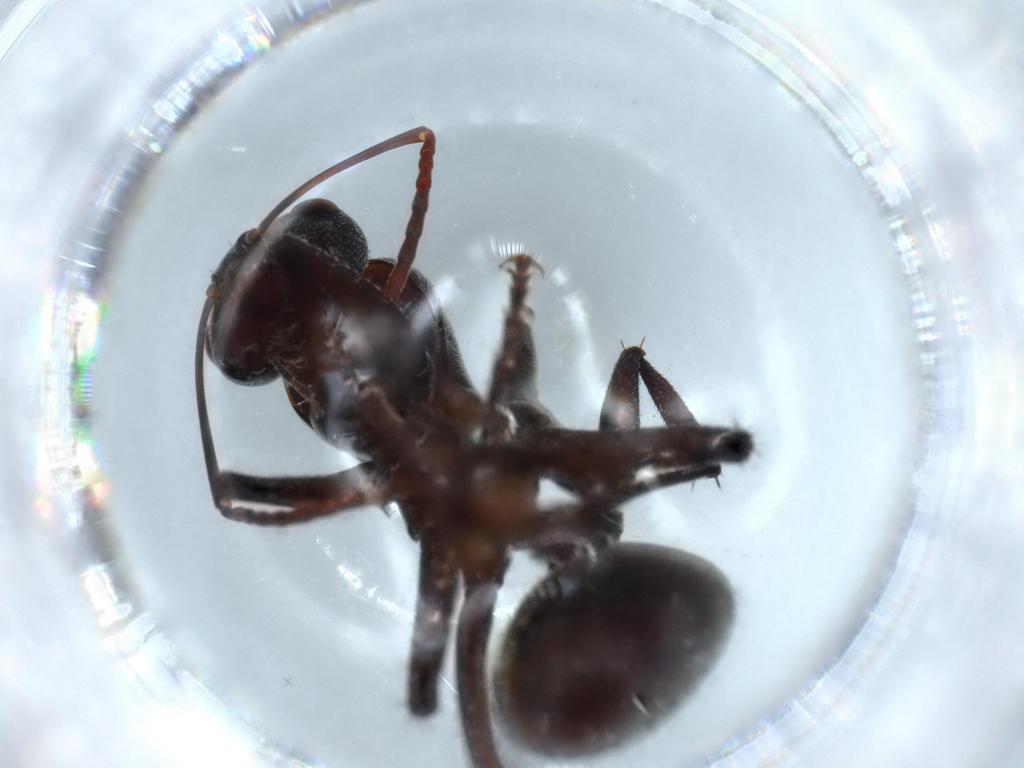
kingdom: Animalia
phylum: Arthropoda
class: Insecta
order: Hymenoptera
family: Formicidae
